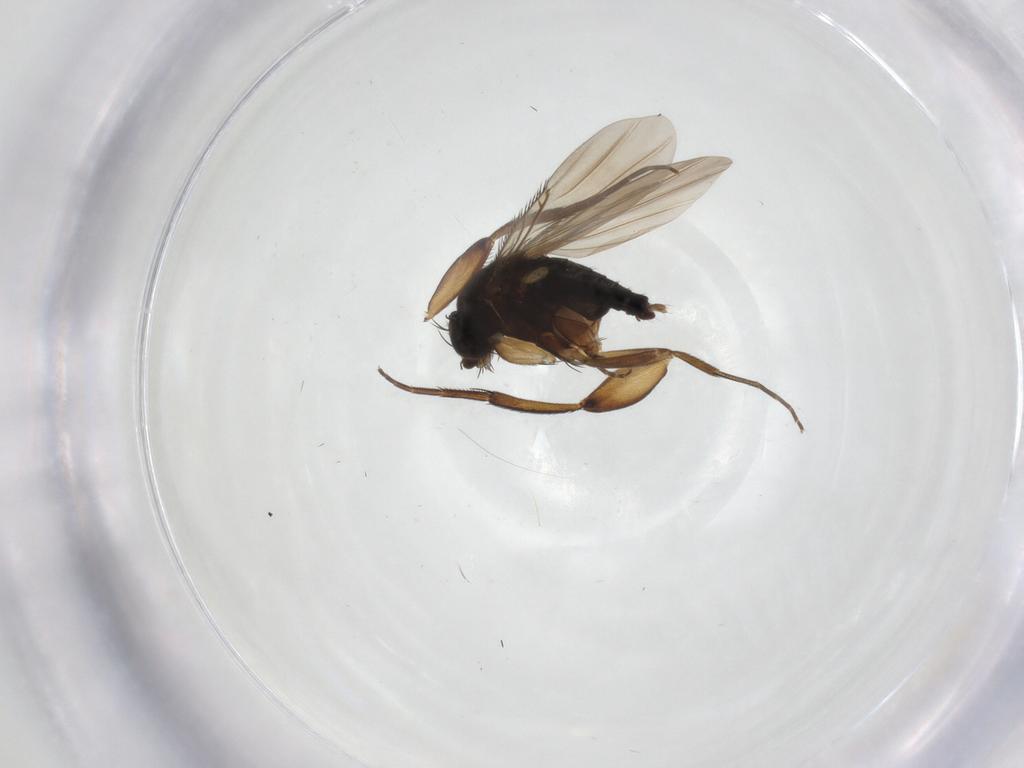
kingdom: Animalia
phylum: Arthropoda
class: Insecta
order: Diptera
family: Phoridae
